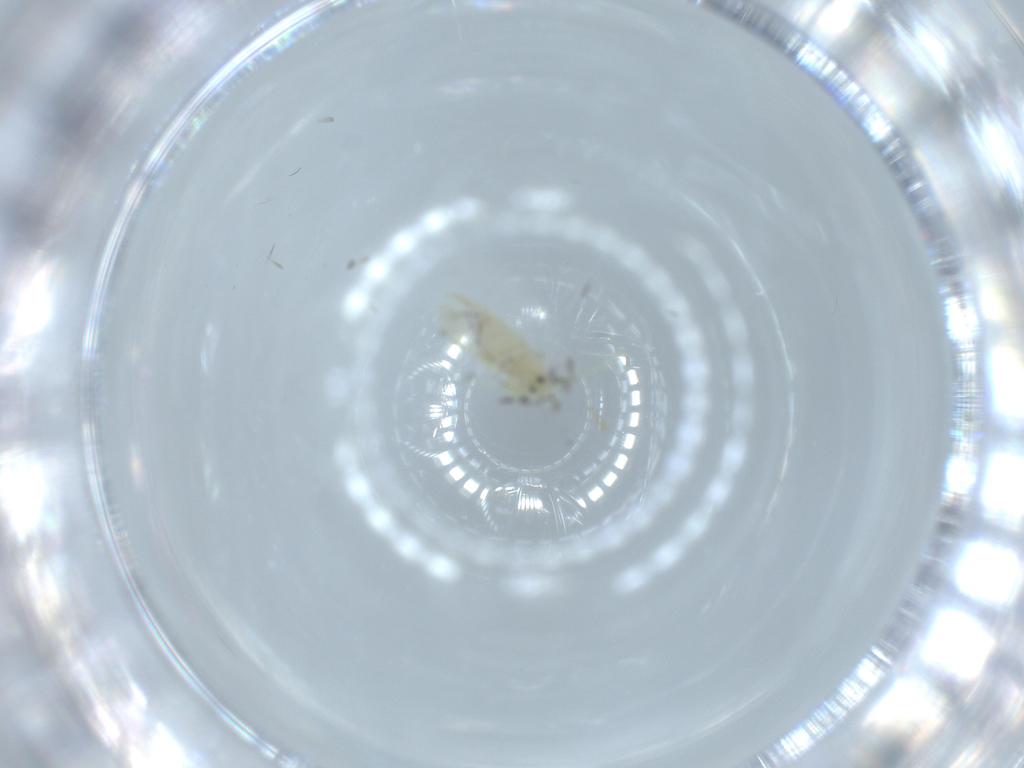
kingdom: Animalia
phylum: Arthropoda
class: Insecta
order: Hemiptera
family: Aleyrodidae
